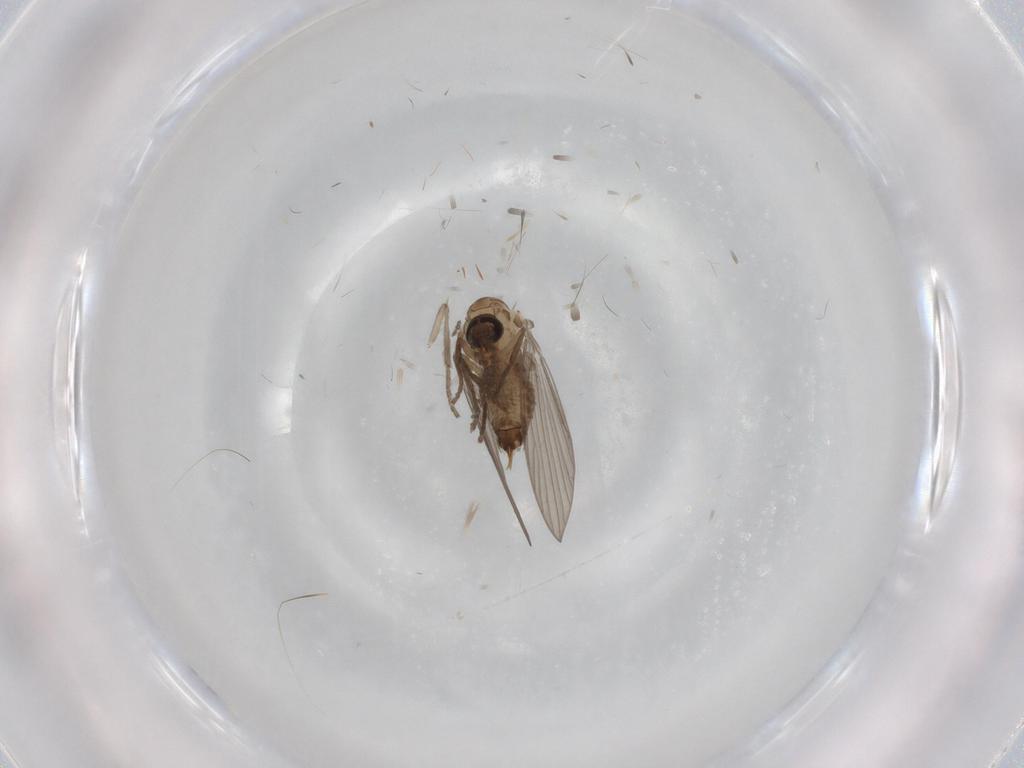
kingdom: Animalia
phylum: Arthropoda
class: Insecta
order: Diptera
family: Psychodidae
